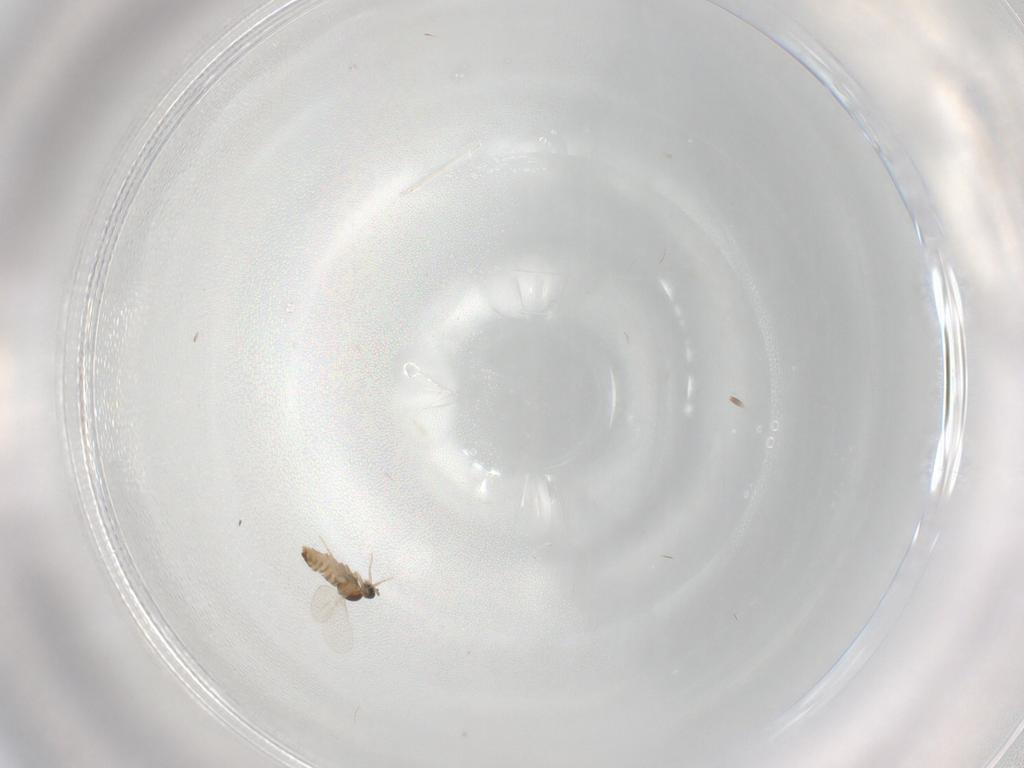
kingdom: Animalia
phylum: Arthropoda
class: Insecta
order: Diptera
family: Cecidomyiidae
